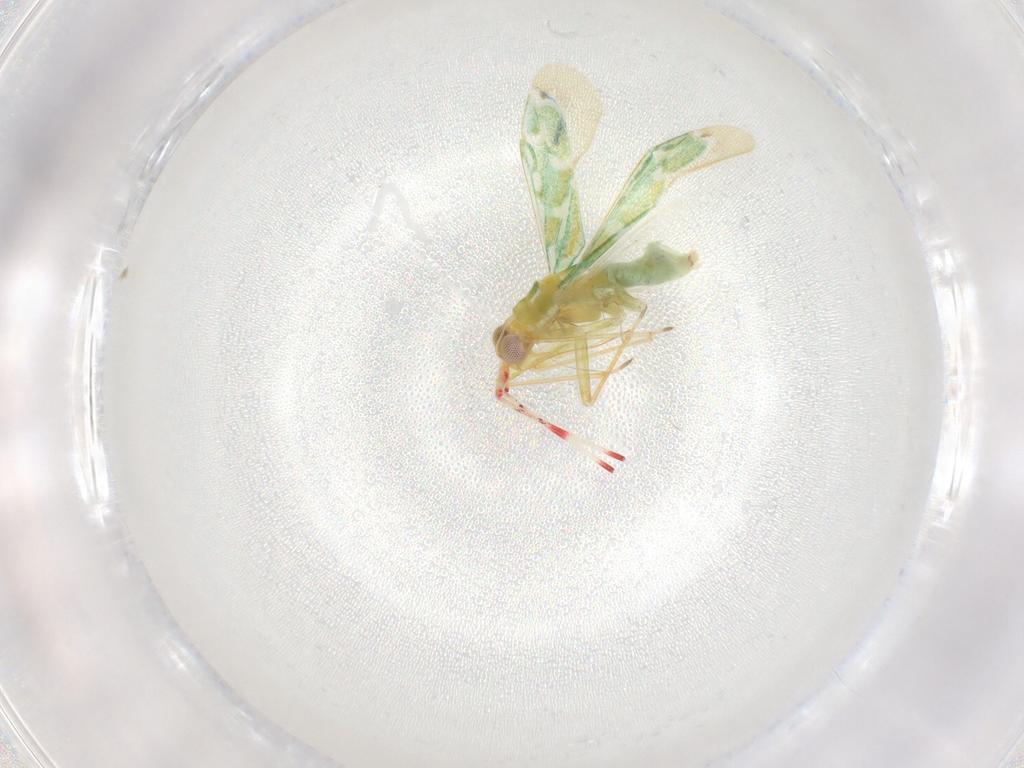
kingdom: Animalia
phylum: Arthropoda
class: Insecta
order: Hemiptera
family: Miridae
